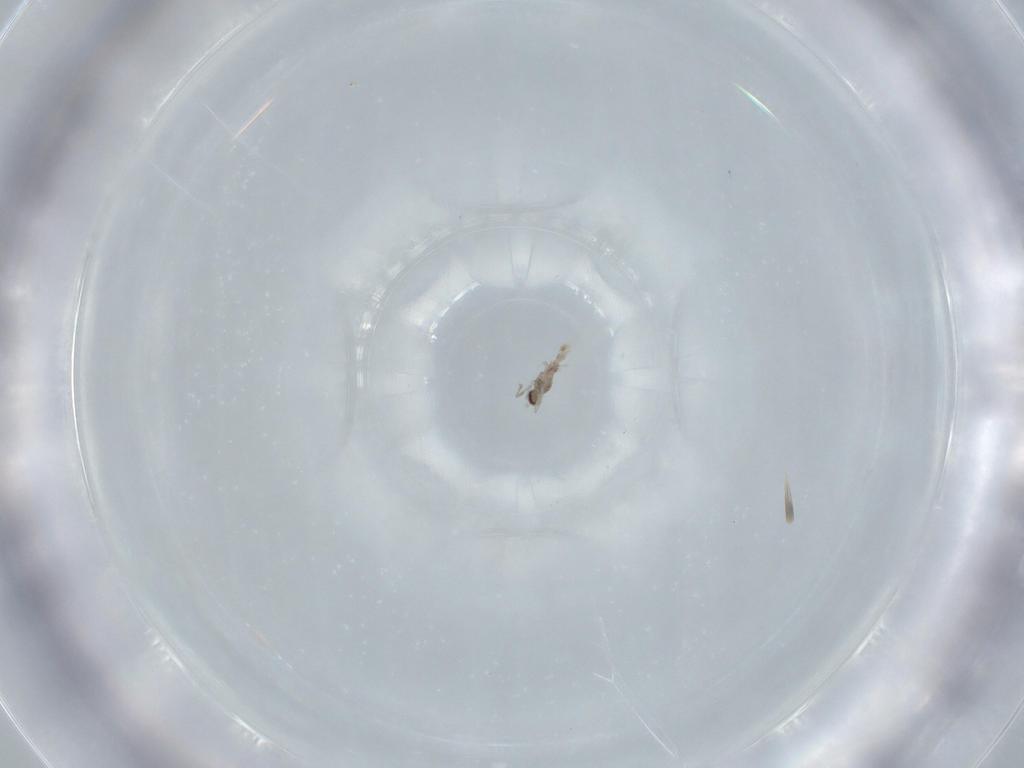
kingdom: Animalia
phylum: Arthropoda
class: Insecta
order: Diptera
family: Cecidomyiidae
